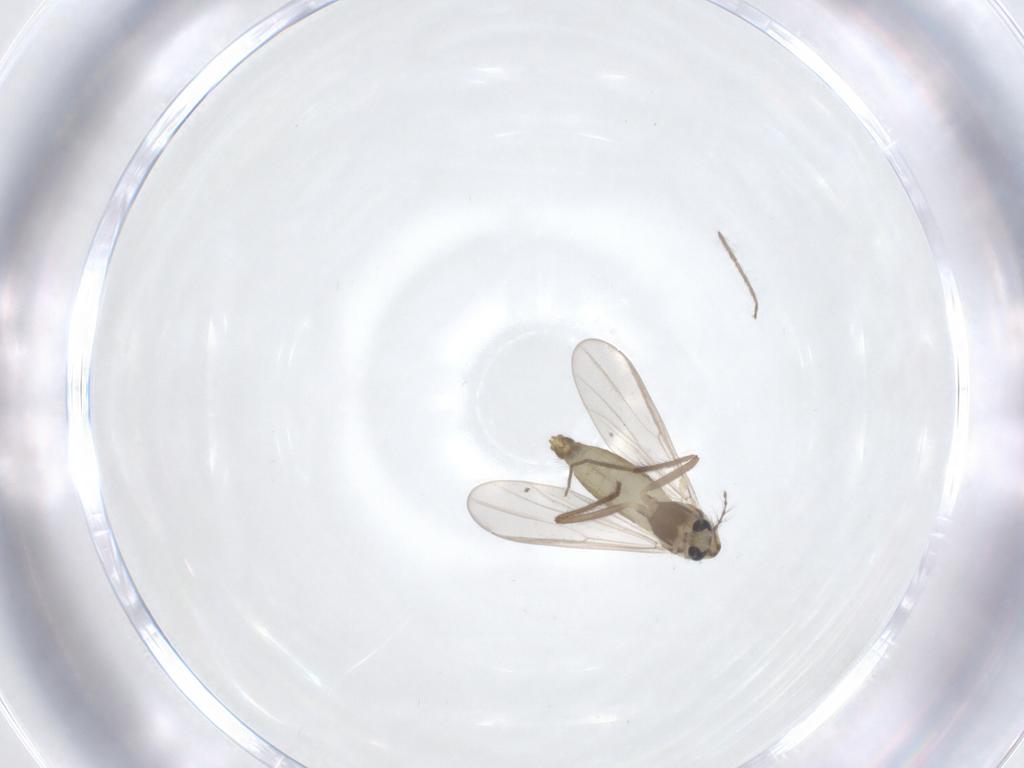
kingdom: Animalia
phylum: Arthropoda
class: Insecta
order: Diptera
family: Chironomidae
